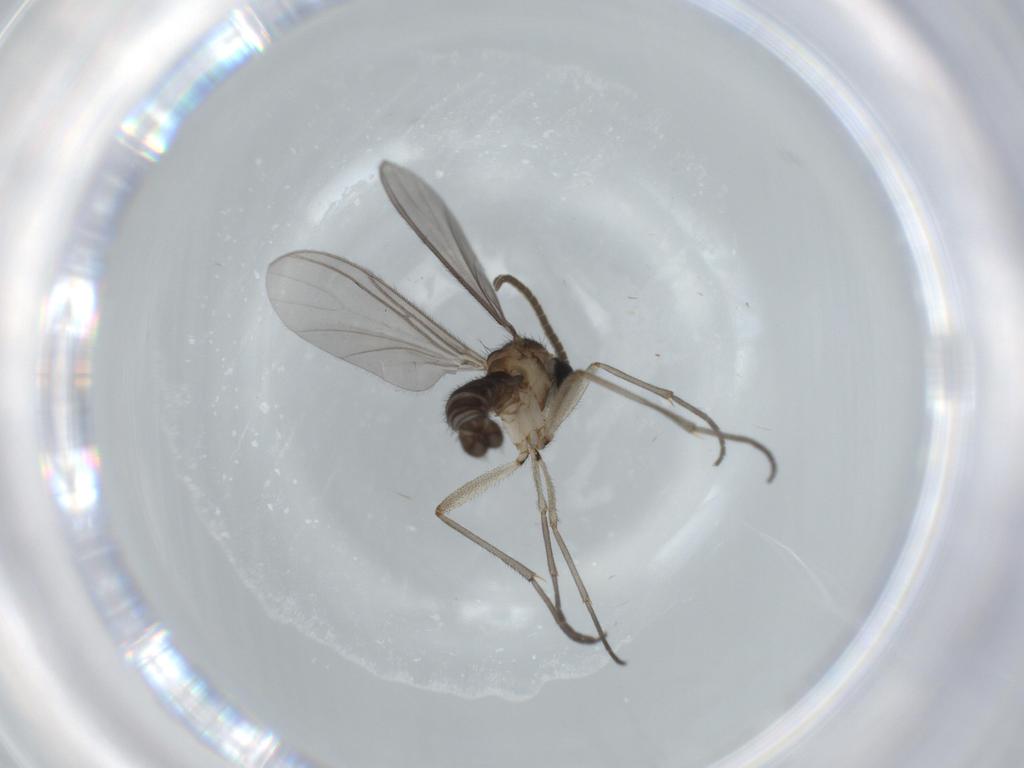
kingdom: Animalia
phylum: Arthropoda
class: Insecta
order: Diptera
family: Sciaridae
